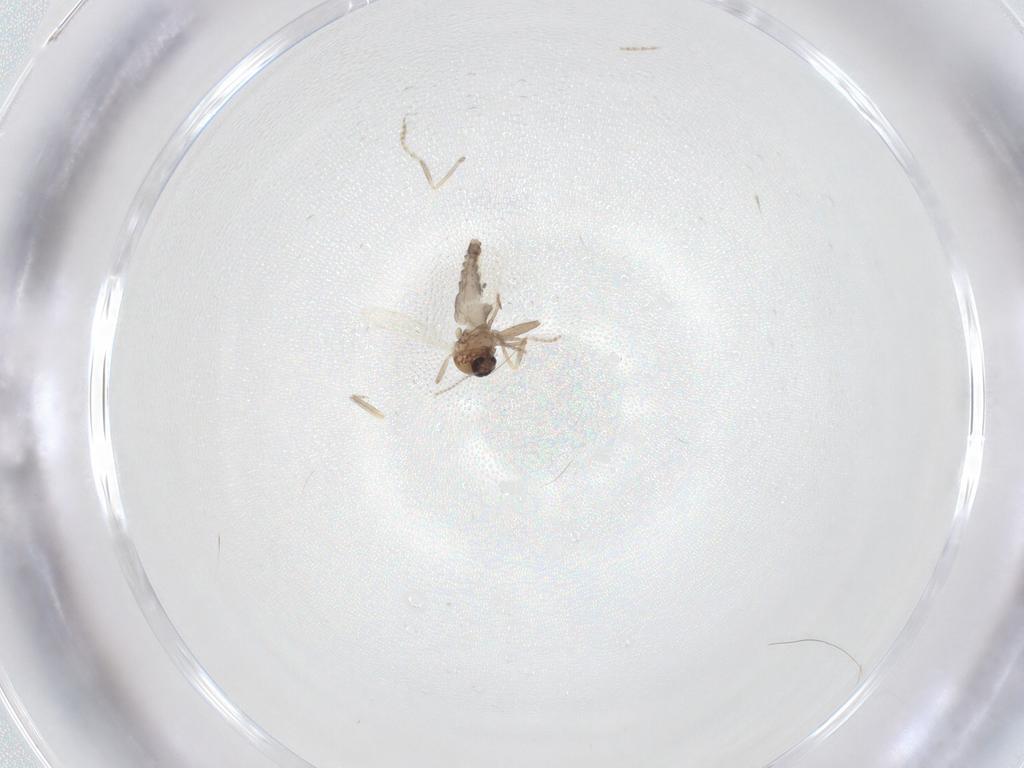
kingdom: Animalia
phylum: Arthropoda
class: Insecta
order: Diptera
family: Ceratopogonidae
